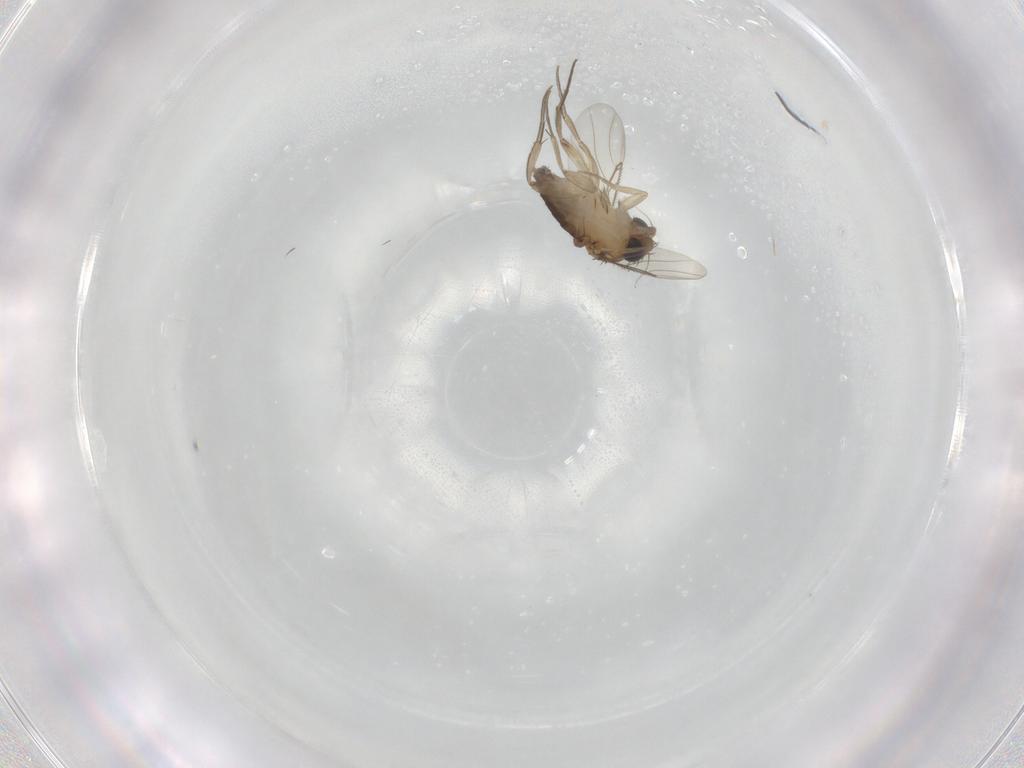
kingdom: Animalia
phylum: Arthropoda
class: Insecta
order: Diptera
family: Phoridae
